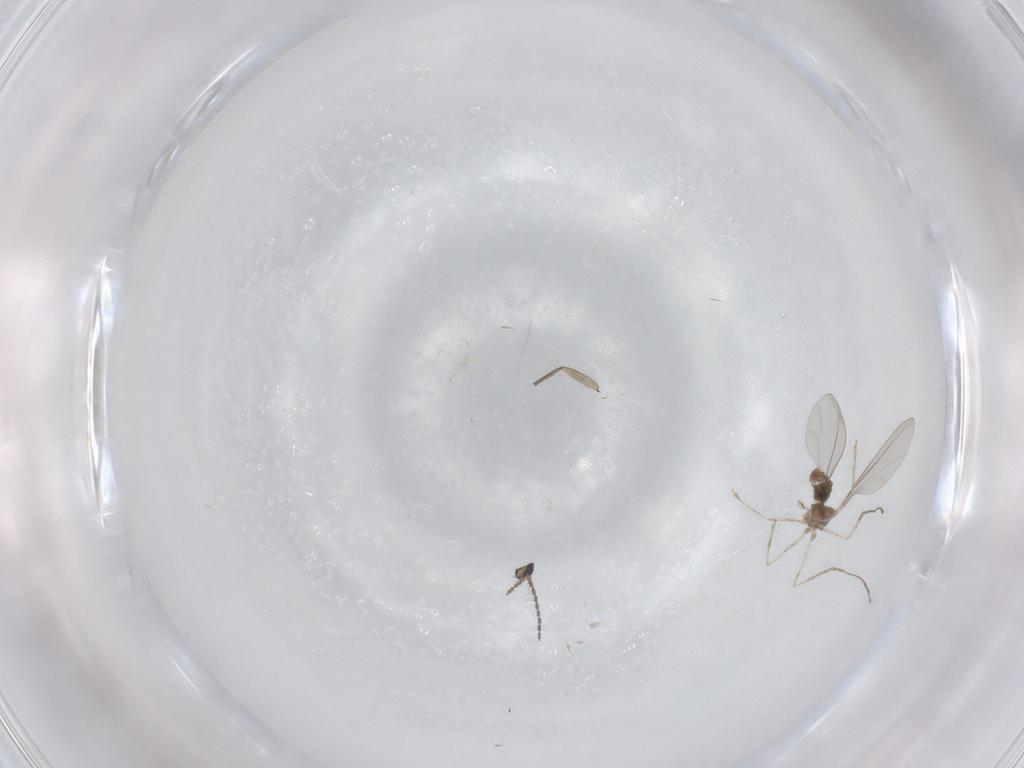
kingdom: Animalia
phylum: Arthropoda
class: Insecta
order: Diptera
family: Sciaridae
